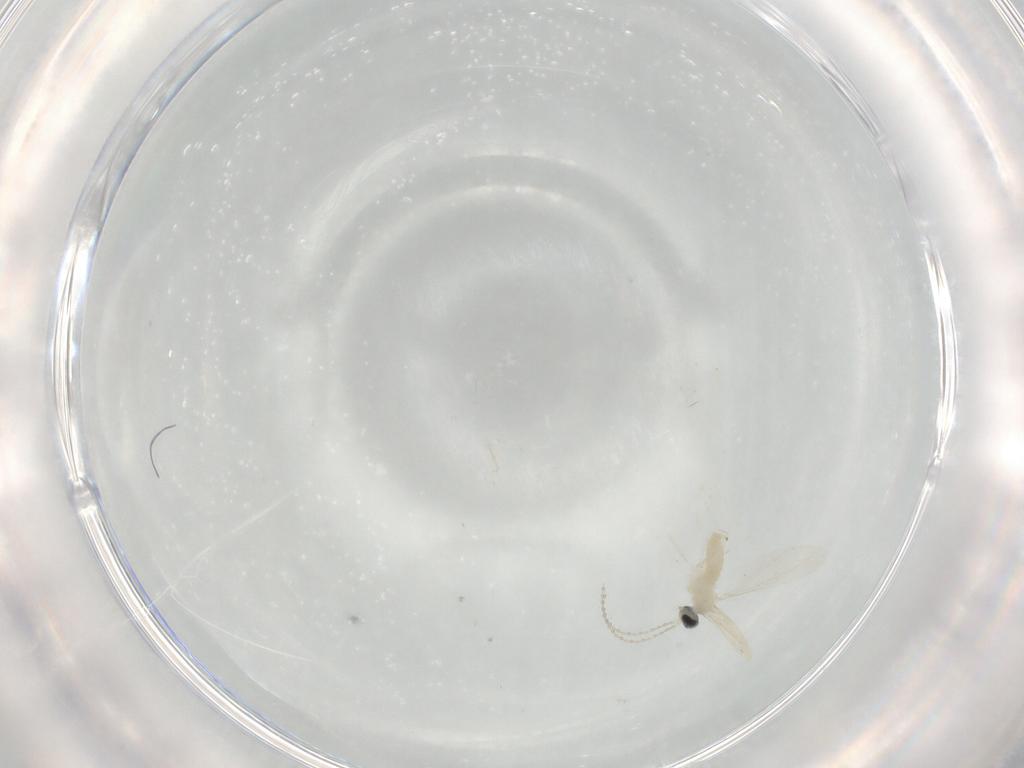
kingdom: Animalia
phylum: Arthropoda
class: Insecta
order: Diptera
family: Cecidomyiidae
